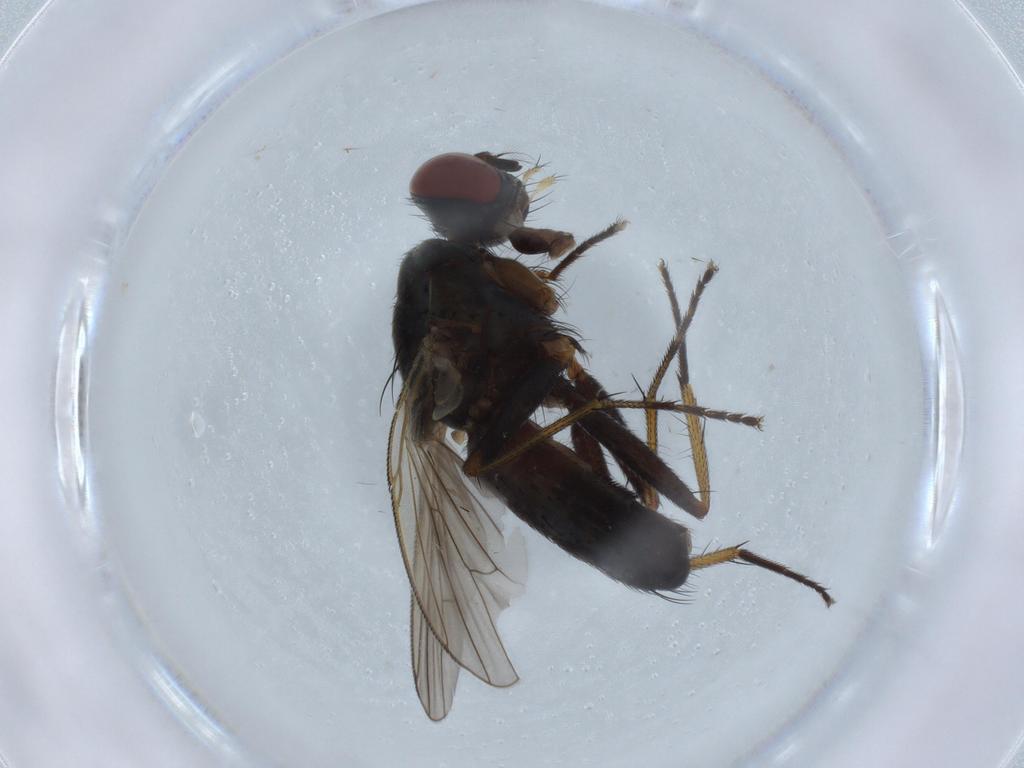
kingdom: Animalia
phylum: Arthropoda
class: Insecta
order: Diptera
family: Muscidae
